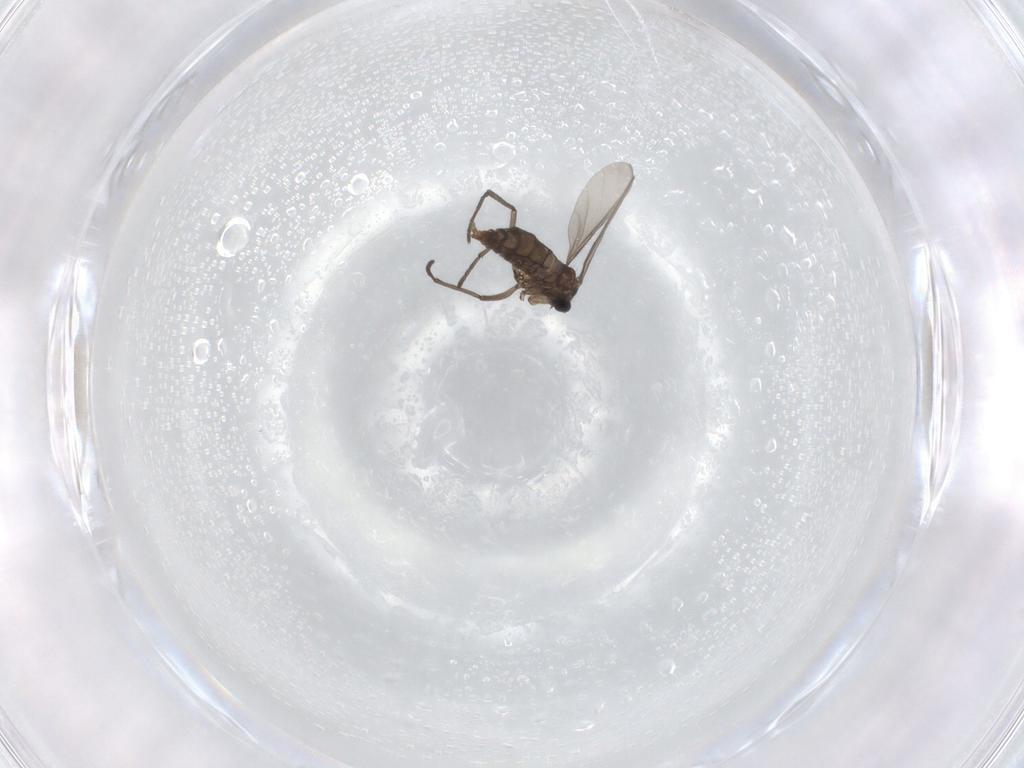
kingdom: Animalia
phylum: Arthropoda
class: Insecta
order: Diptera
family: Sciaridae
